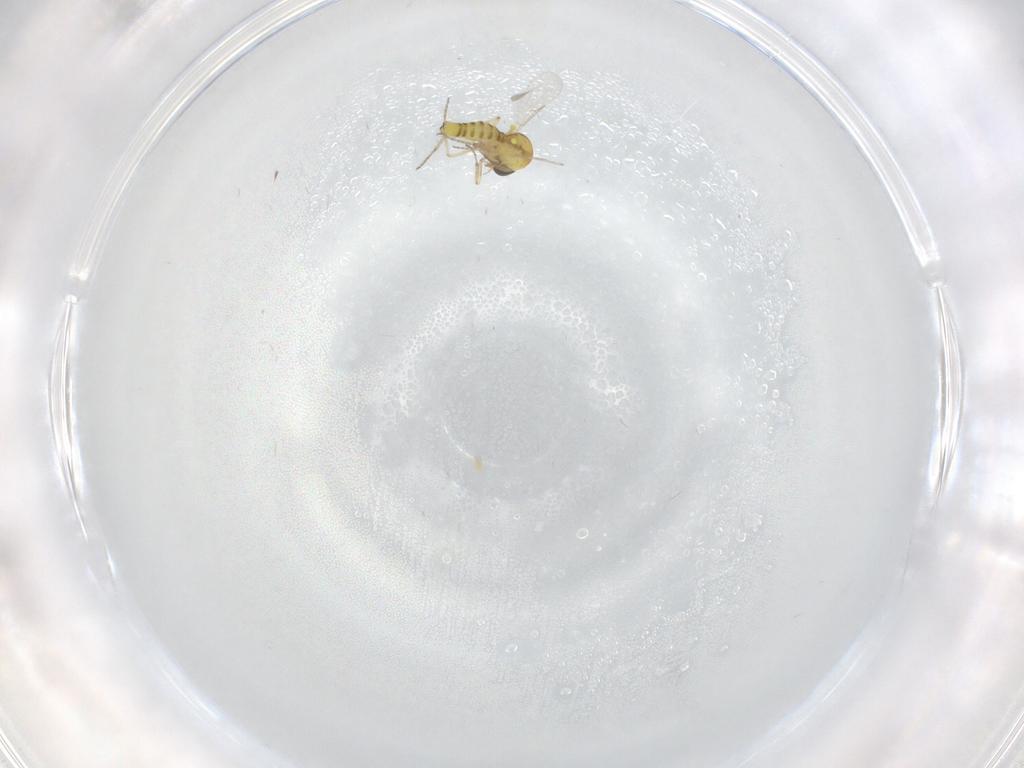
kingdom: Animalia
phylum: Arthropoda
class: Insecta
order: Diptera
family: Ceratopogonidae
